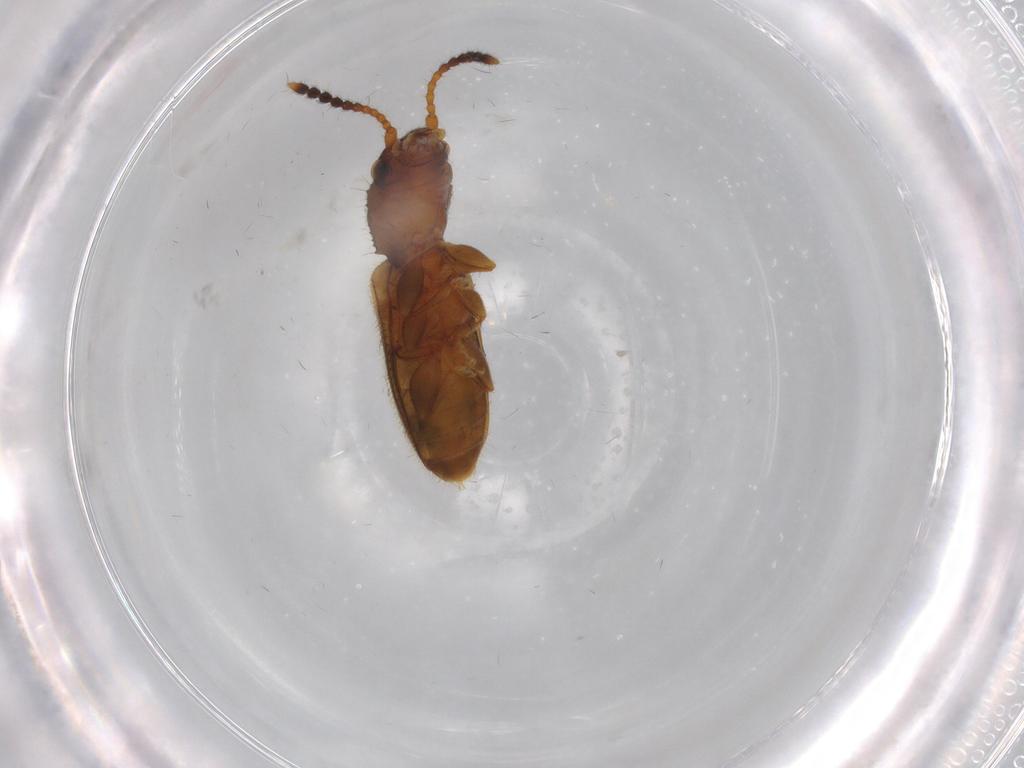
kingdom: Animalia
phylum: Arthropoda
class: Insecta
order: Coleoptera
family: Silvanidae
